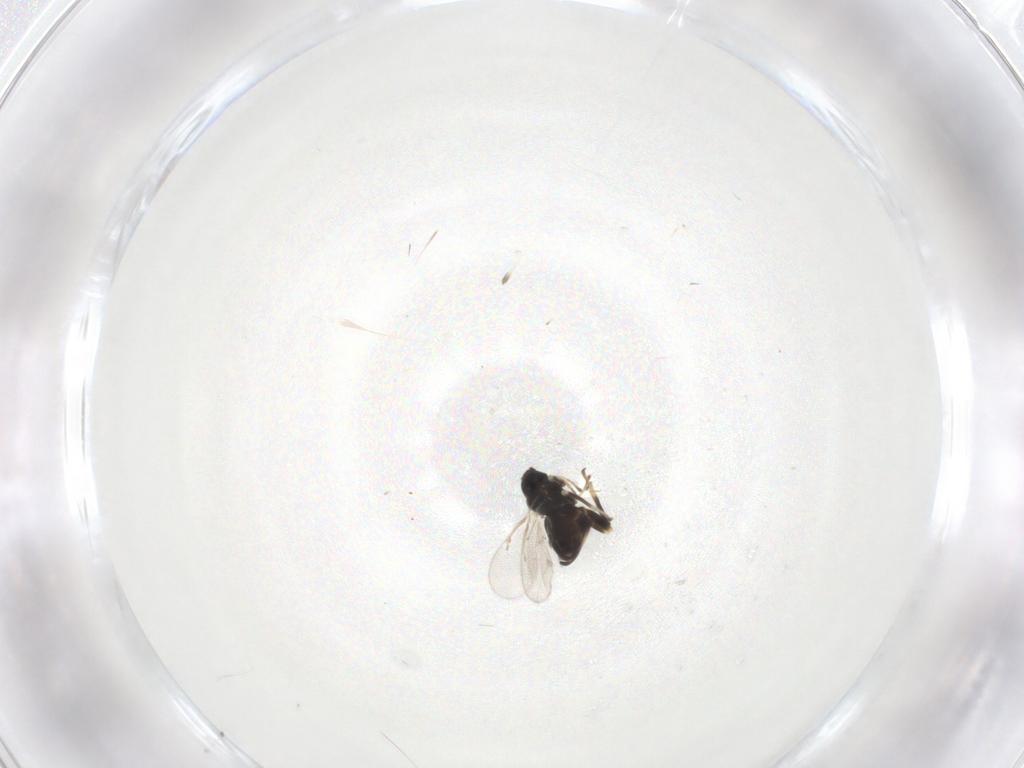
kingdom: Animalia
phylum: Arthropoda
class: Insecta
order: Hymenoptera
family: Eulophidae
